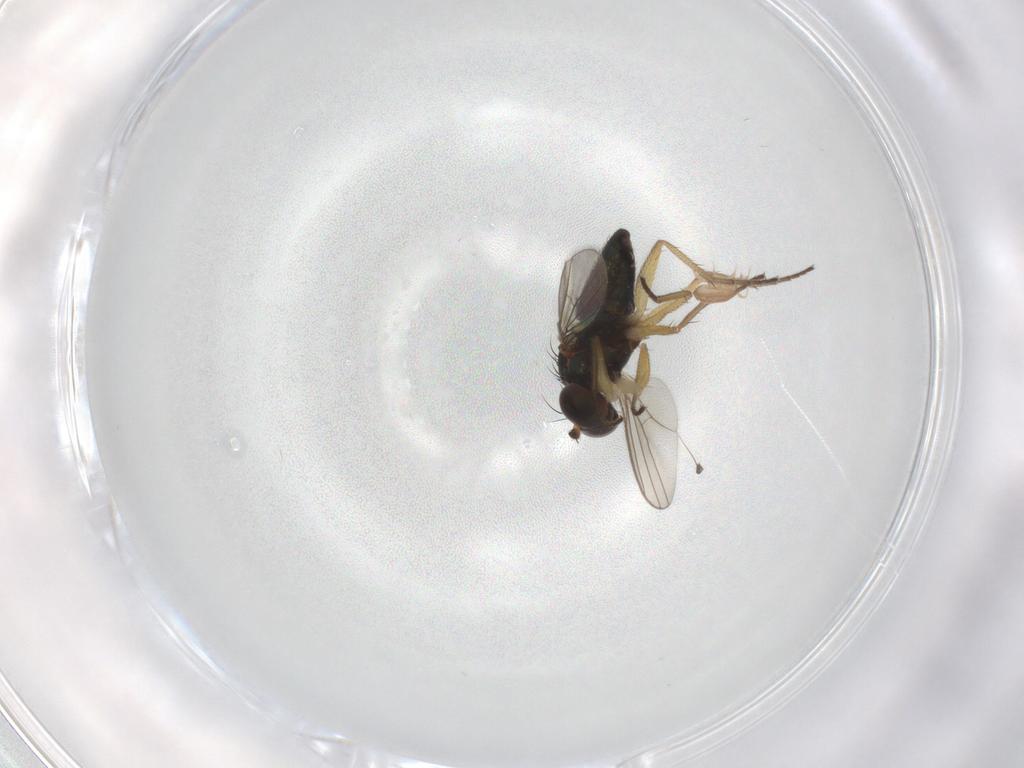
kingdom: Animalia
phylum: Arthropoda
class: Insecta
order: Diptera
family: Dolichopodidae
